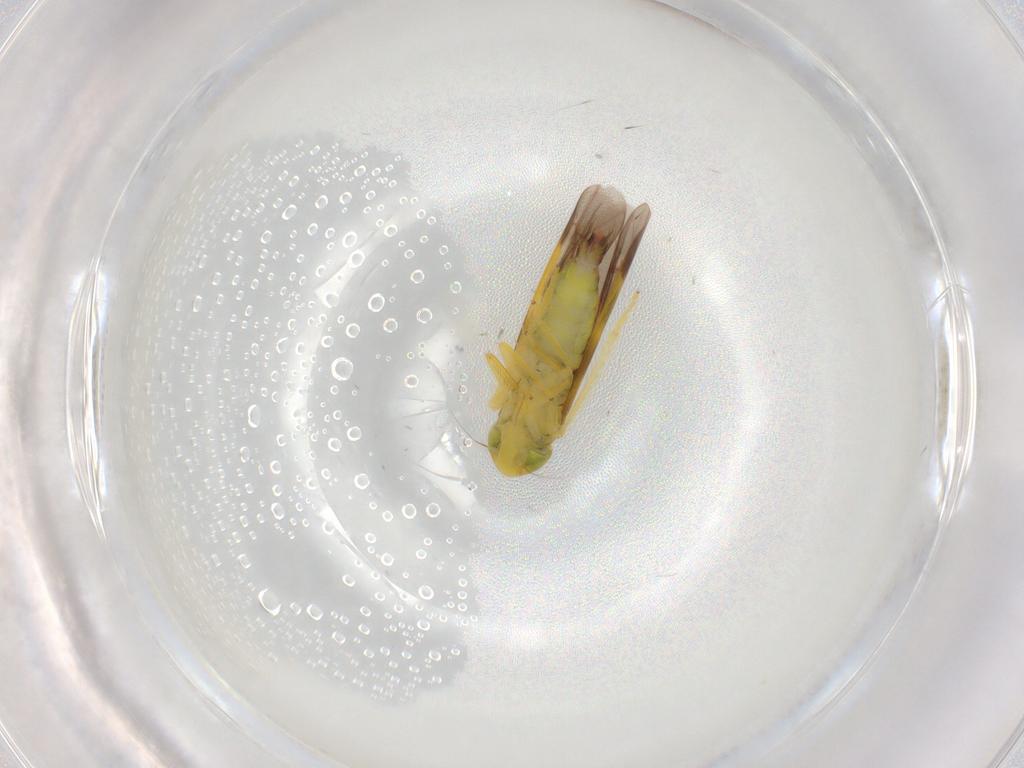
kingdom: Animalia
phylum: Arthropoda
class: Insecta
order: Hemiptera
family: Cicadellidae
